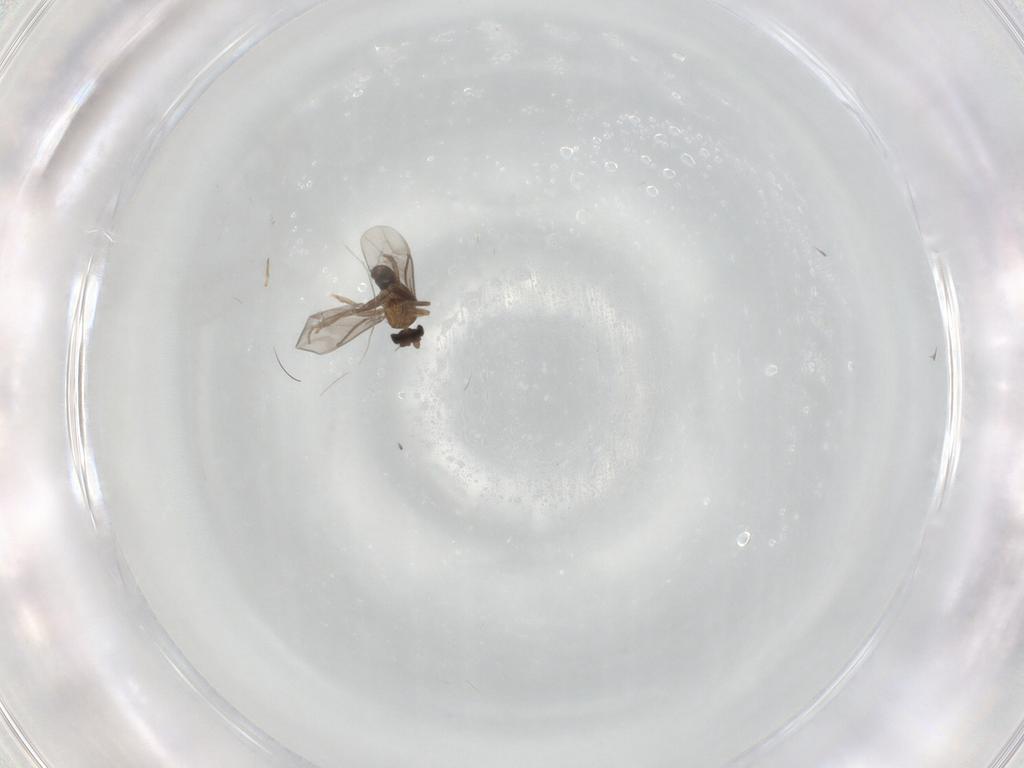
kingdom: Animalia
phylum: Arthropoda
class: Insecta
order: Diptera
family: Phoridae
